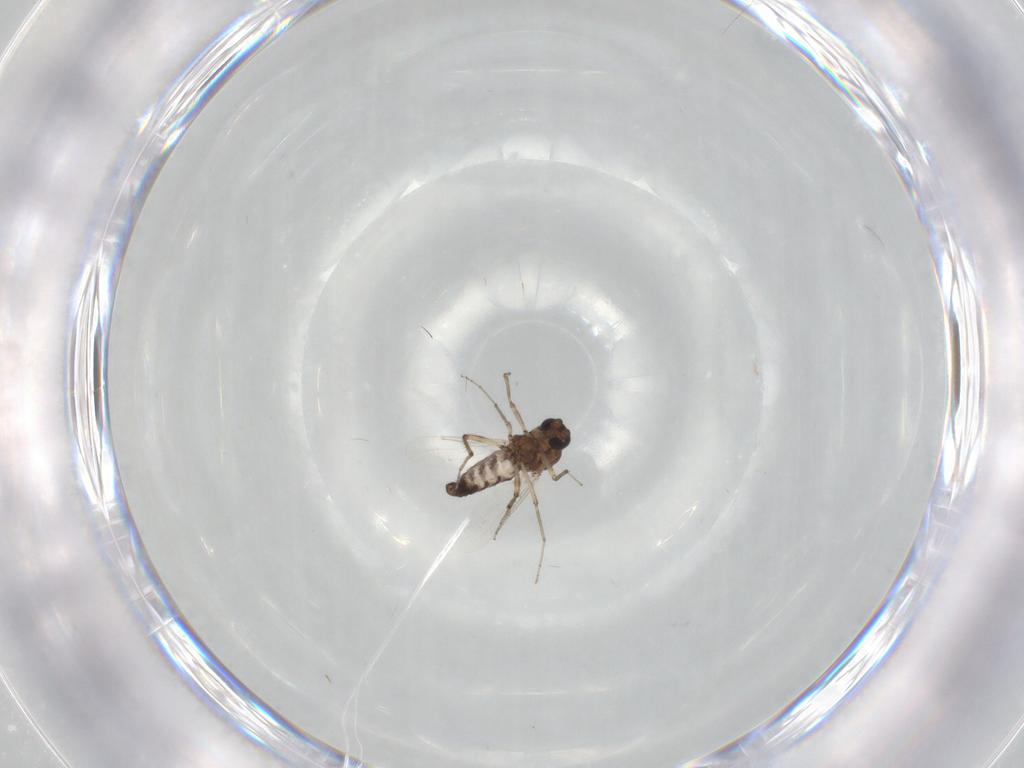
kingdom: Animalia
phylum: Arthropoda
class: Insecta
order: Diptera
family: Ceratopogonidae
